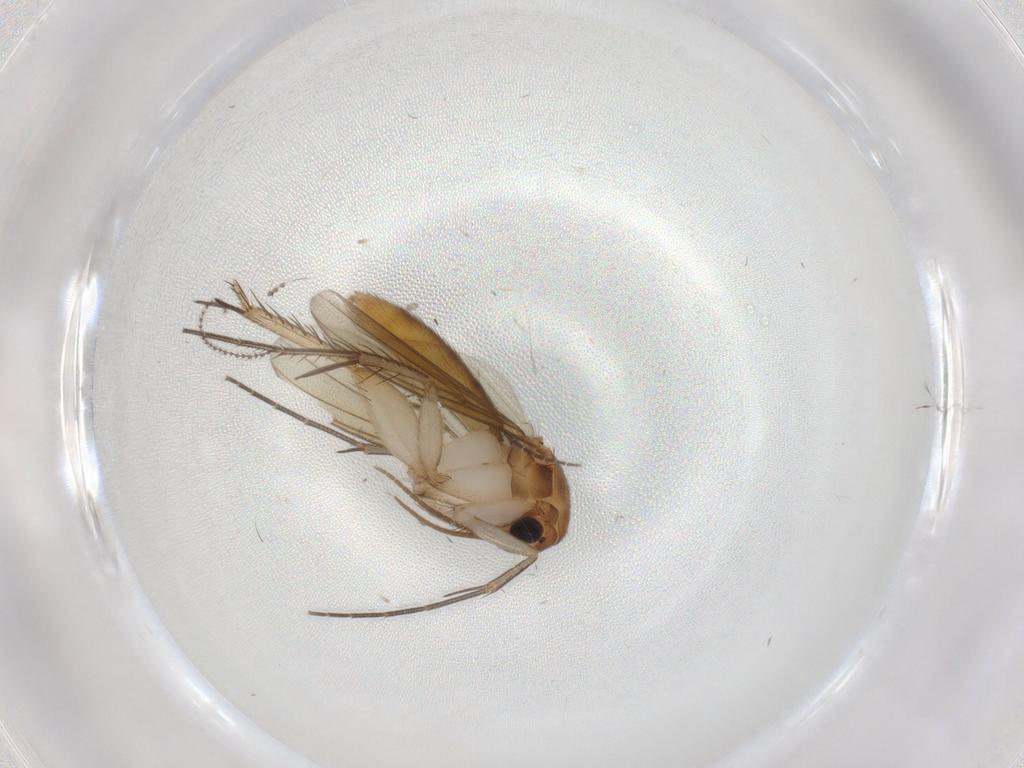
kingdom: Animalia
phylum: Arthropoda
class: Insecta
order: Diptera
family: Mycetophilidae
